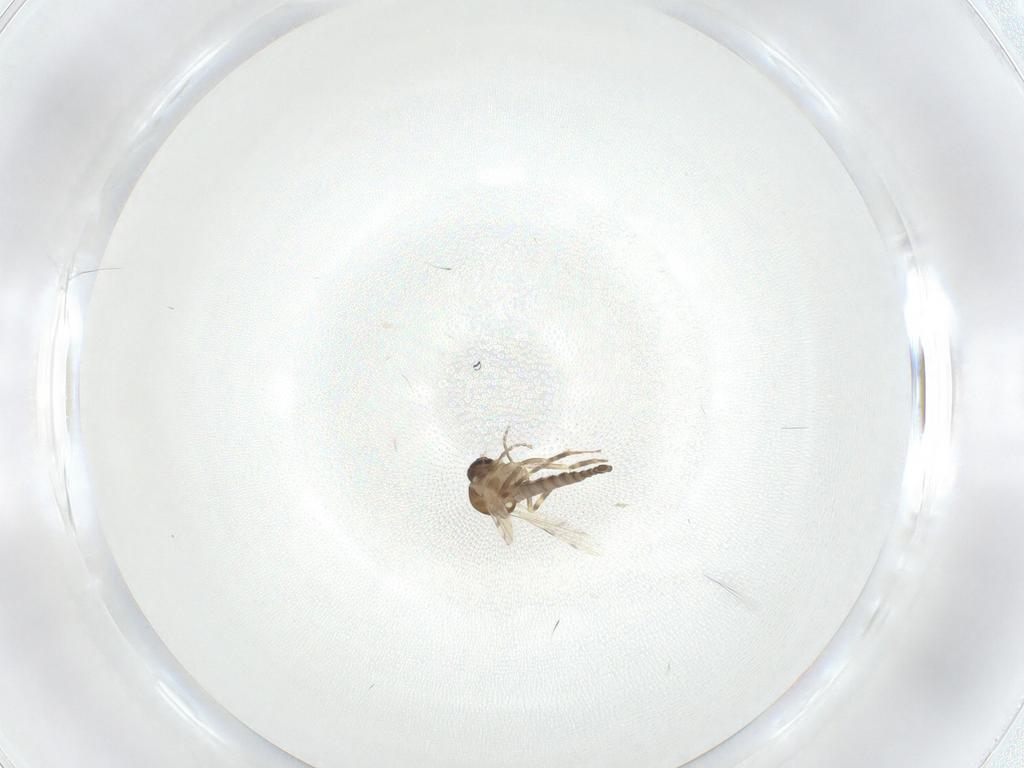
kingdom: Animalia
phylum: Arthropoda
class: Insecta
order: Diptera
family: Ceratopogonidae
